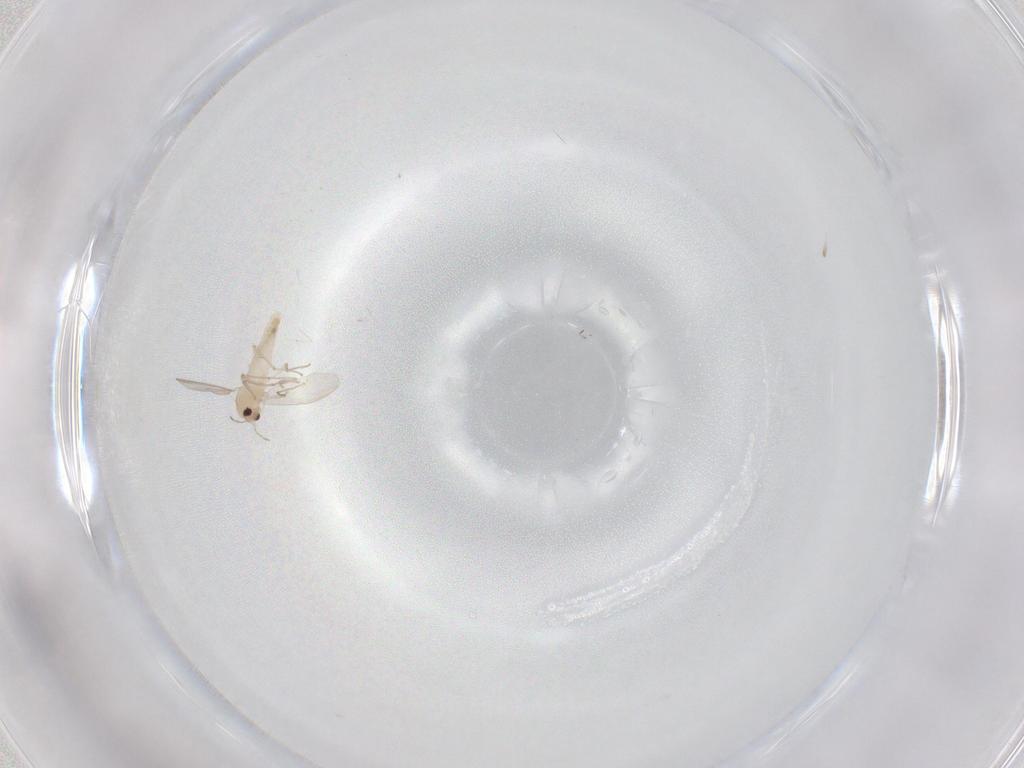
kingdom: Animalia
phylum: Arthropoda
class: Insecta
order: Diptera
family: Chironomidae
